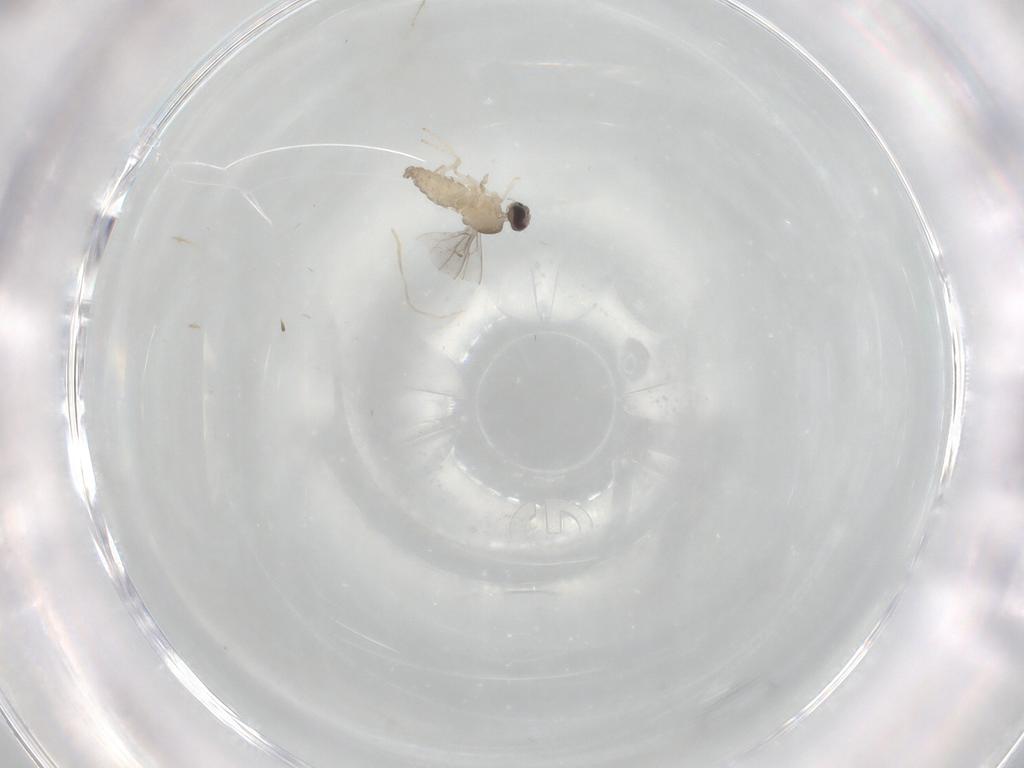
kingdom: Animalia
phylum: Arthropoda
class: Insecta
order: Diptera
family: Cecidomyiidae
